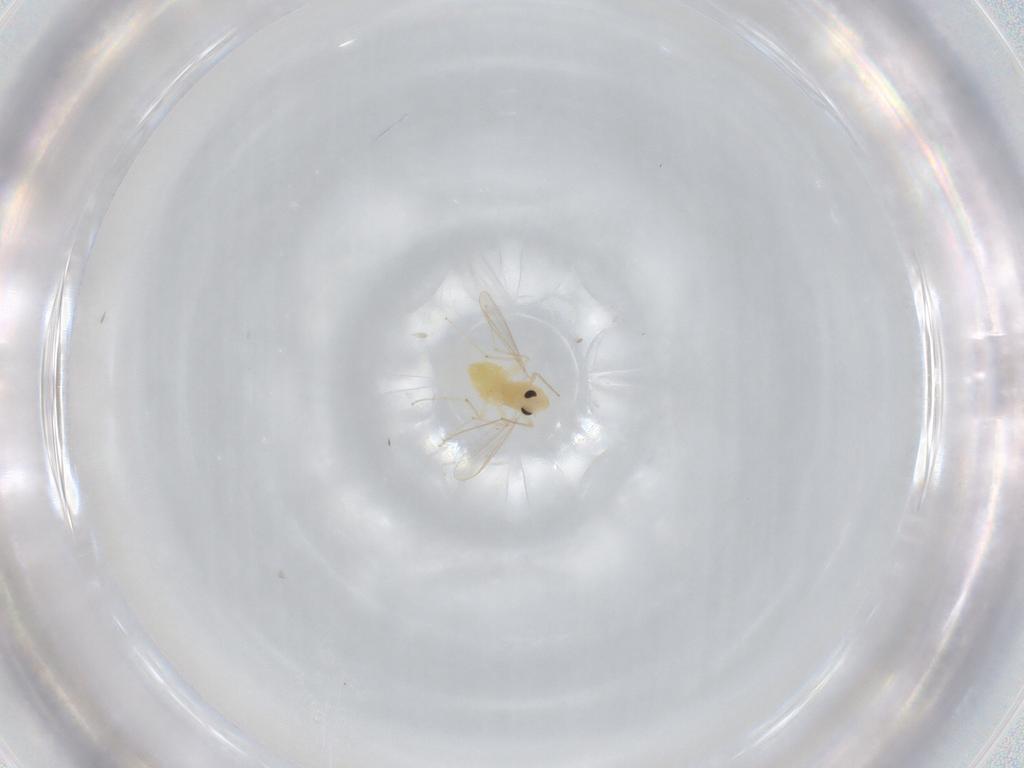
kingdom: Animalia
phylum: Arthropoda
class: Insecta
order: Diptera
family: Chironomidae
